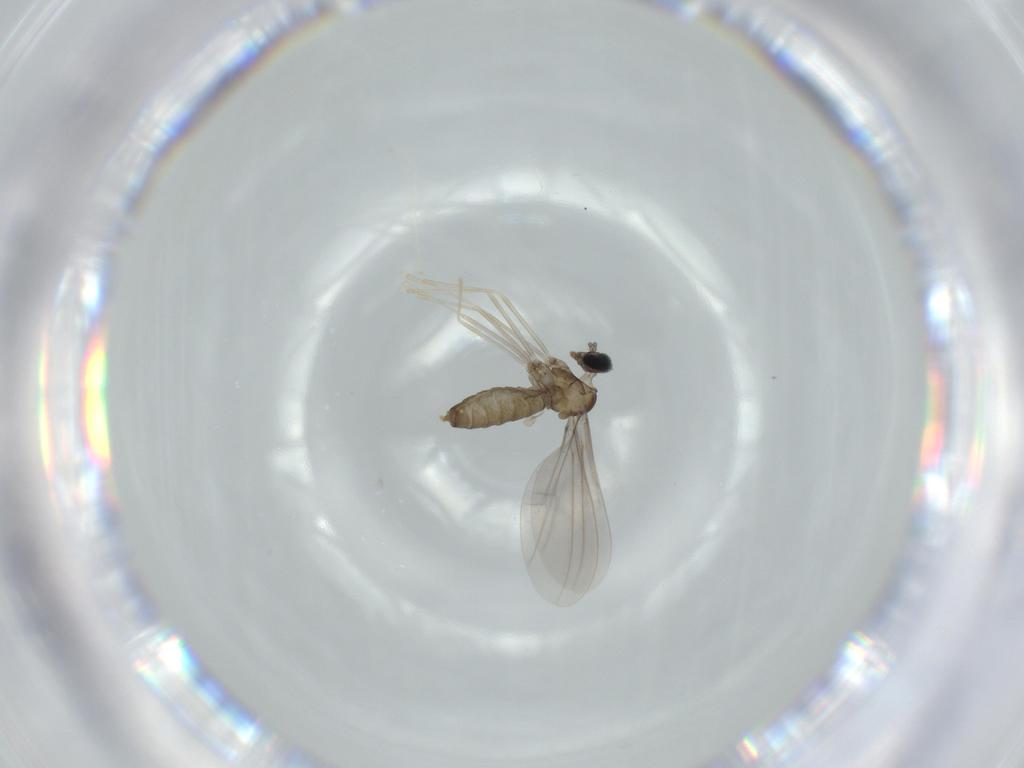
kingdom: Animalia
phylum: Arthropoda
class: Insecta
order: Diptera
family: Cecidomyiidae
